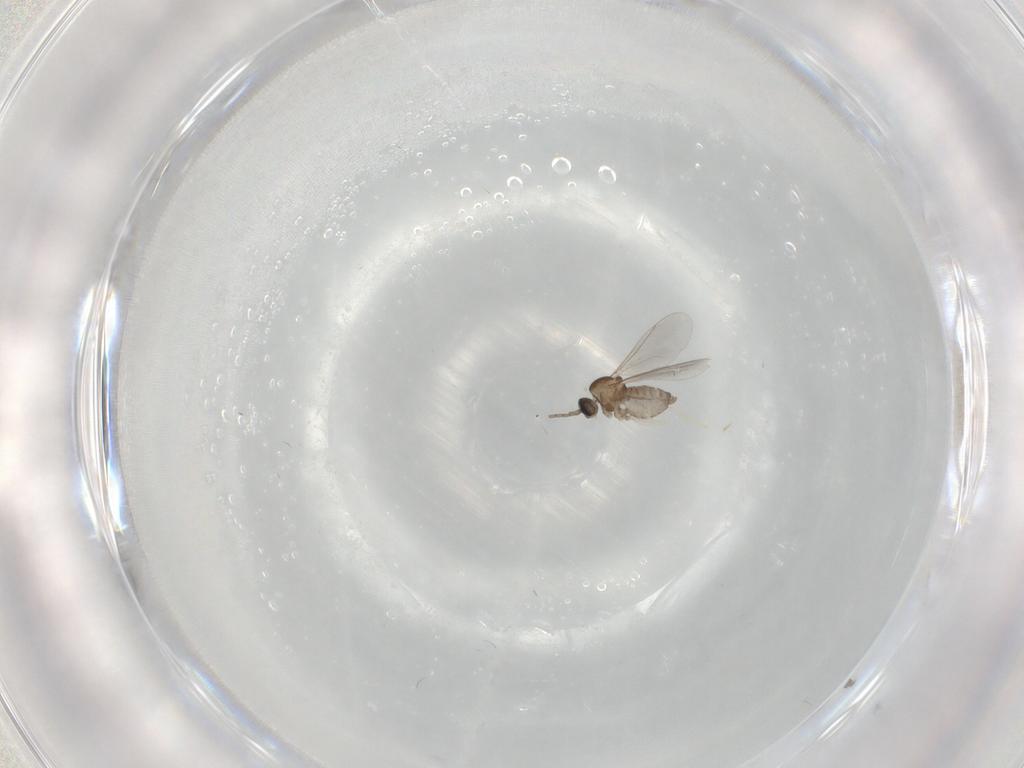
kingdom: Animalia
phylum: Arthropoda
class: Insecta
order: Diptera
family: Cecidomyiidae
